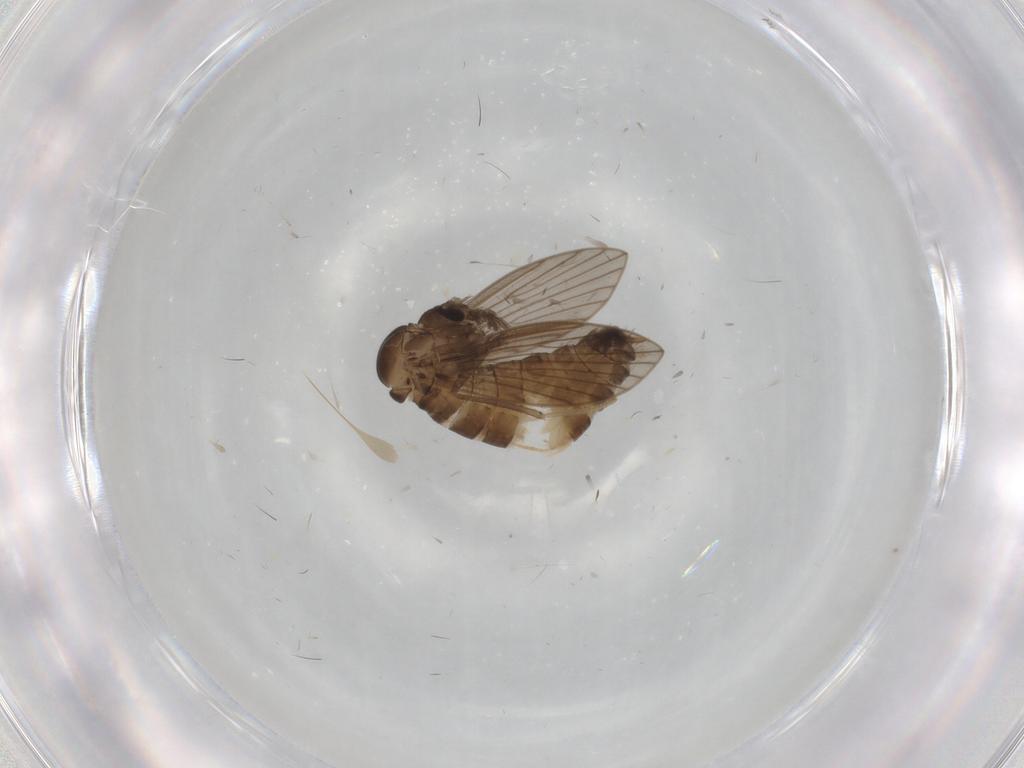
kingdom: Animalia
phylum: Arthropoda
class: Insecta
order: Diptera
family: Psychodidae
